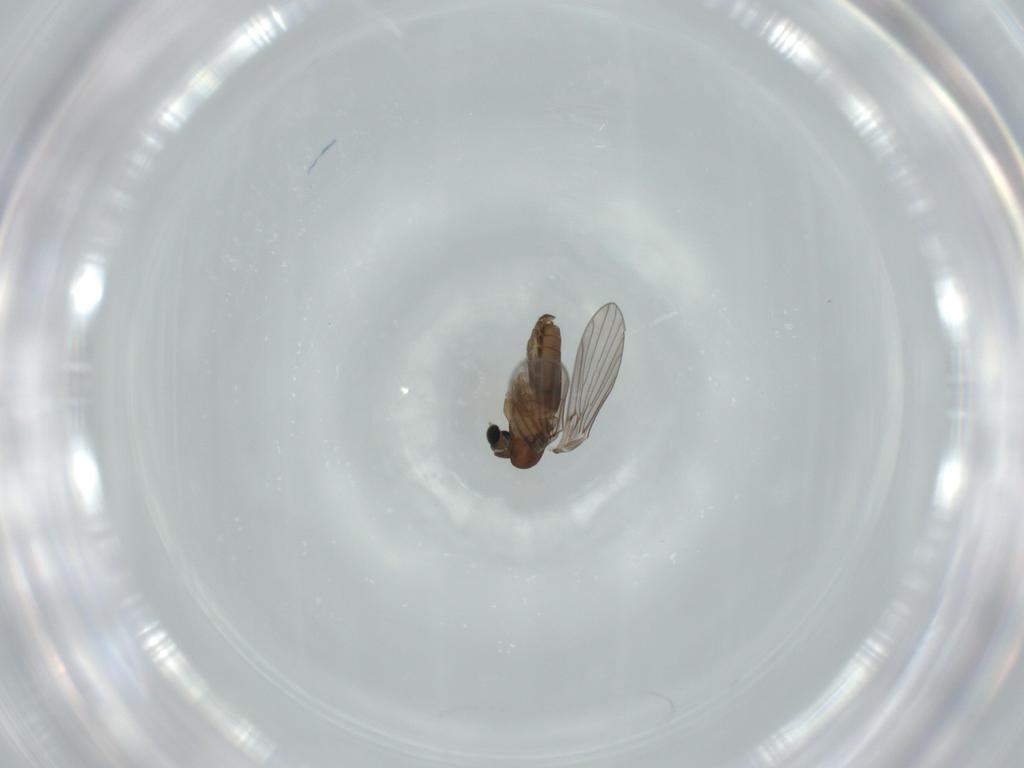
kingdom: Animalia
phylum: Arthropoda
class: Insecta
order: Diptera
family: Psychodidae
